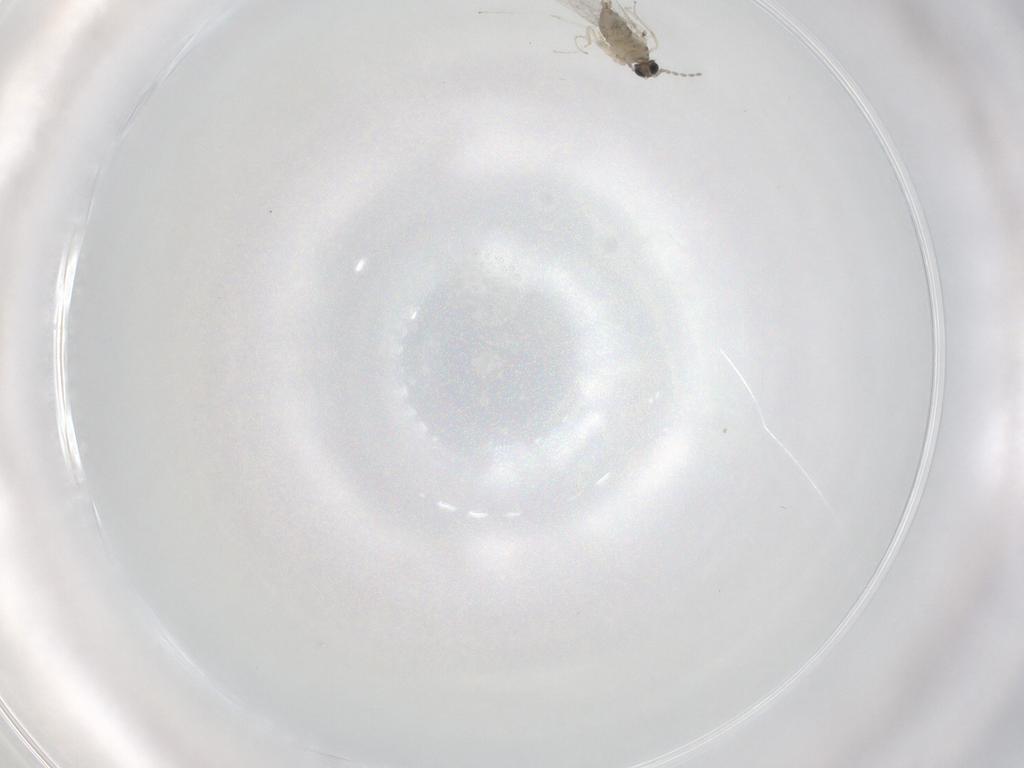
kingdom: Animalia
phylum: Arthropoda
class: Insecta
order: Diptera
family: Cecidomyiidae
